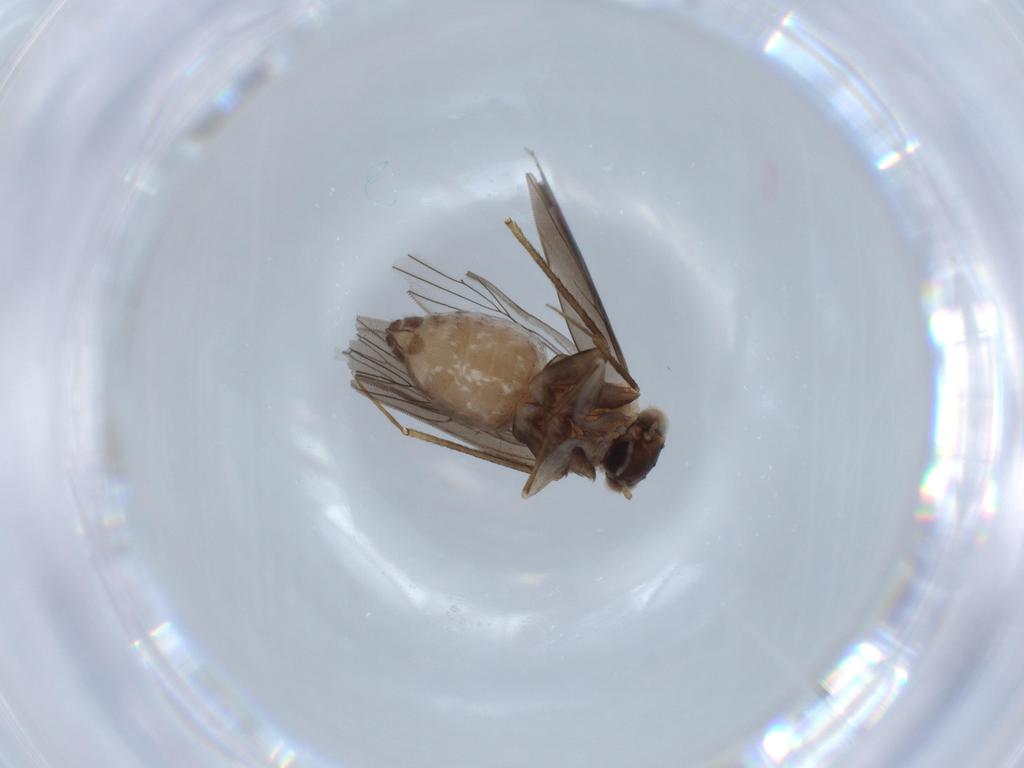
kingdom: Animalia
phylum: Arthropoda
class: Insecta
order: Psocodea
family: Lepidopsocidae
